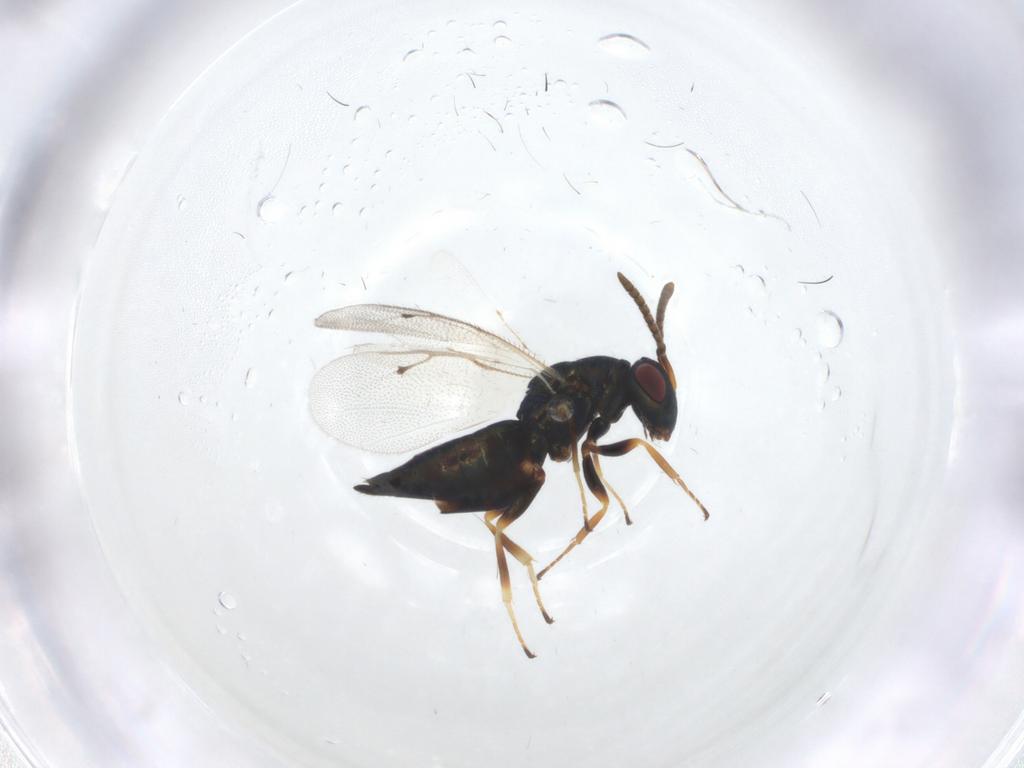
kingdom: Animalia
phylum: Arthropoda
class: Insecta
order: Hymenoptera
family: Pteromalidae
